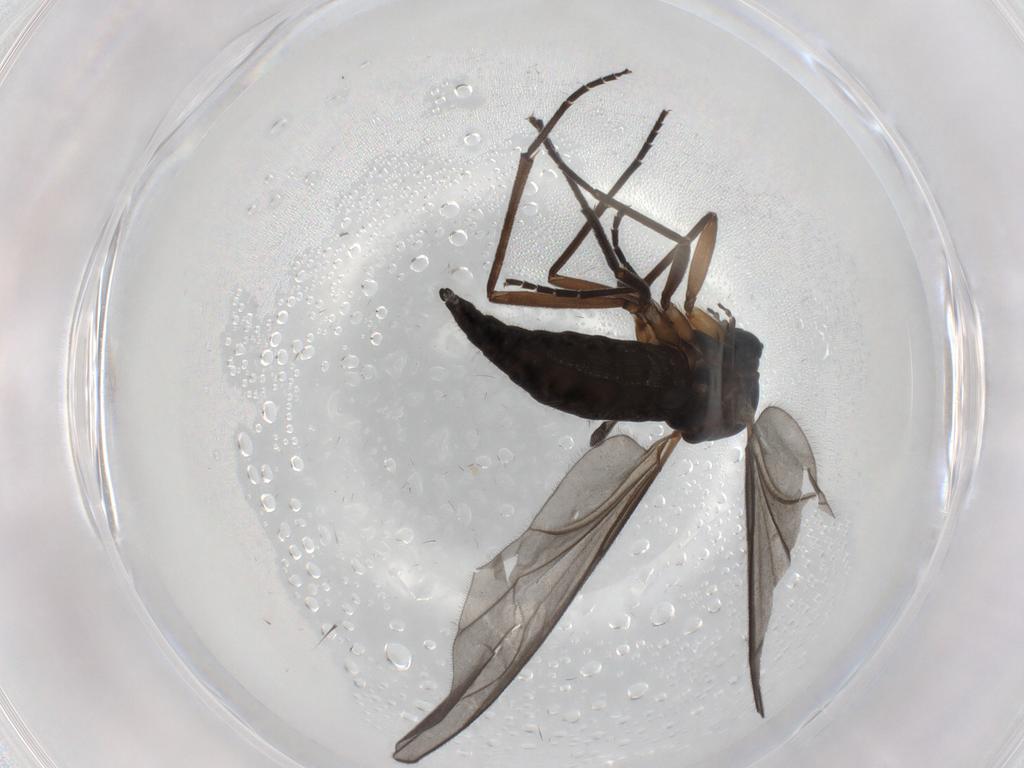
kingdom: Animalia
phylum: Arthropoda
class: Insecta
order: Diptera
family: Sciaridae
